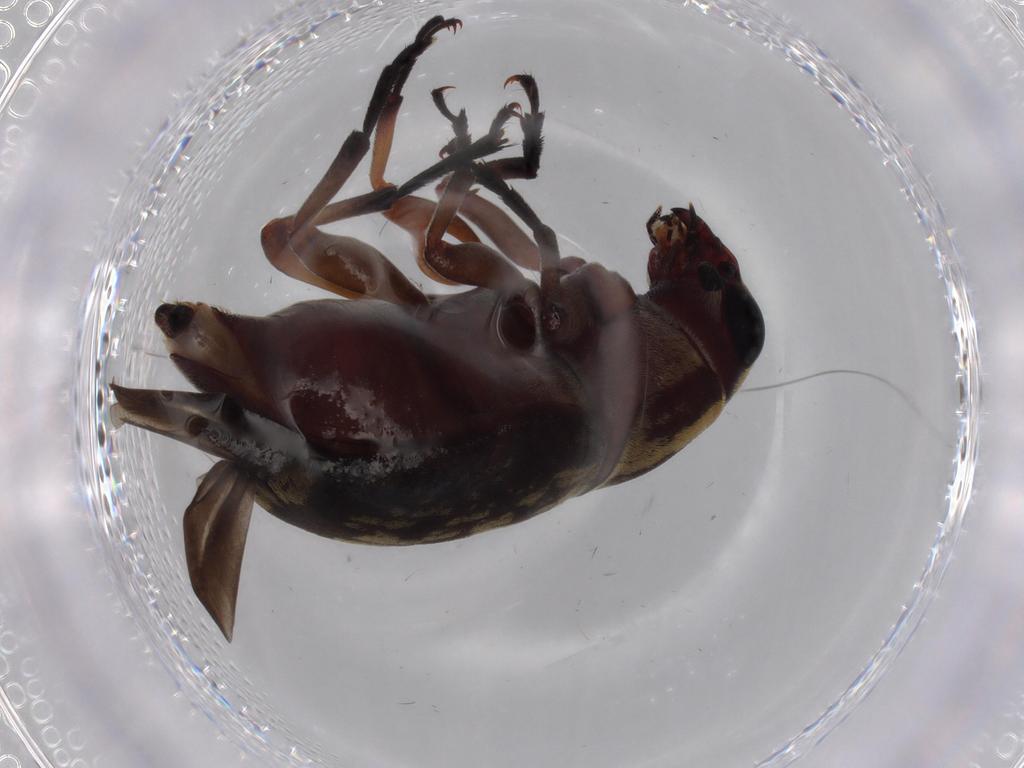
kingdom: Animalia
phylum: Arthropoda
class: Insecta
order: Coleoptera
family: Anthribidae
